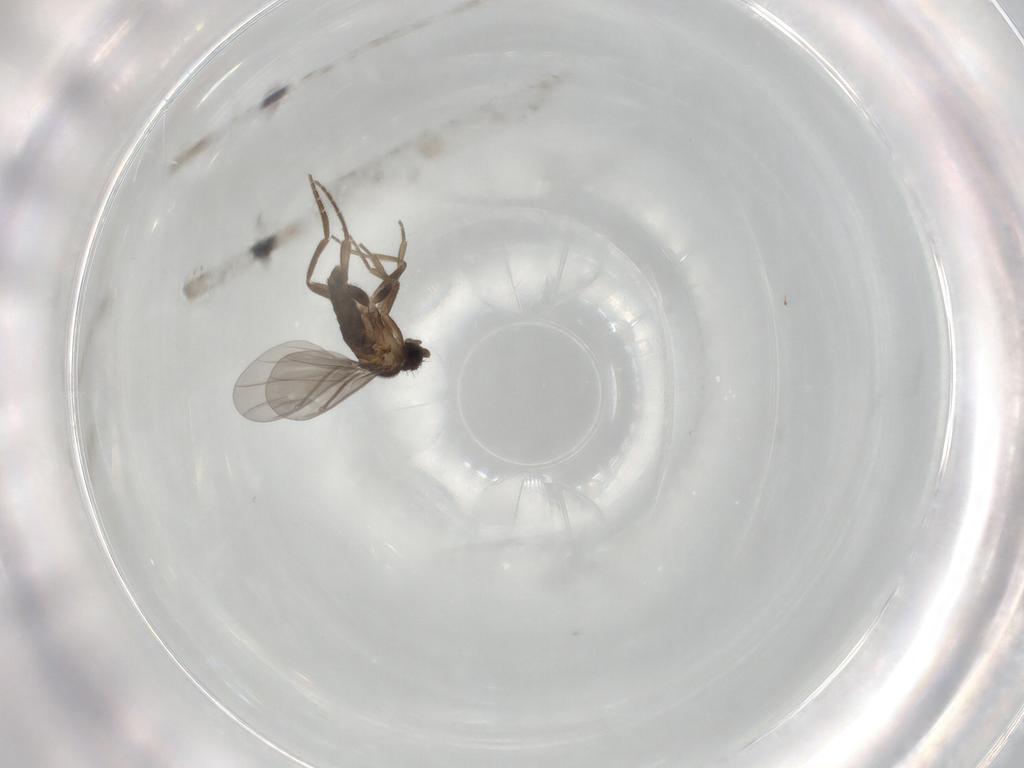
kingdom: Animalia
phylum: Arthropoda
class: Insecta
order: Diptera
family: Phoridae
